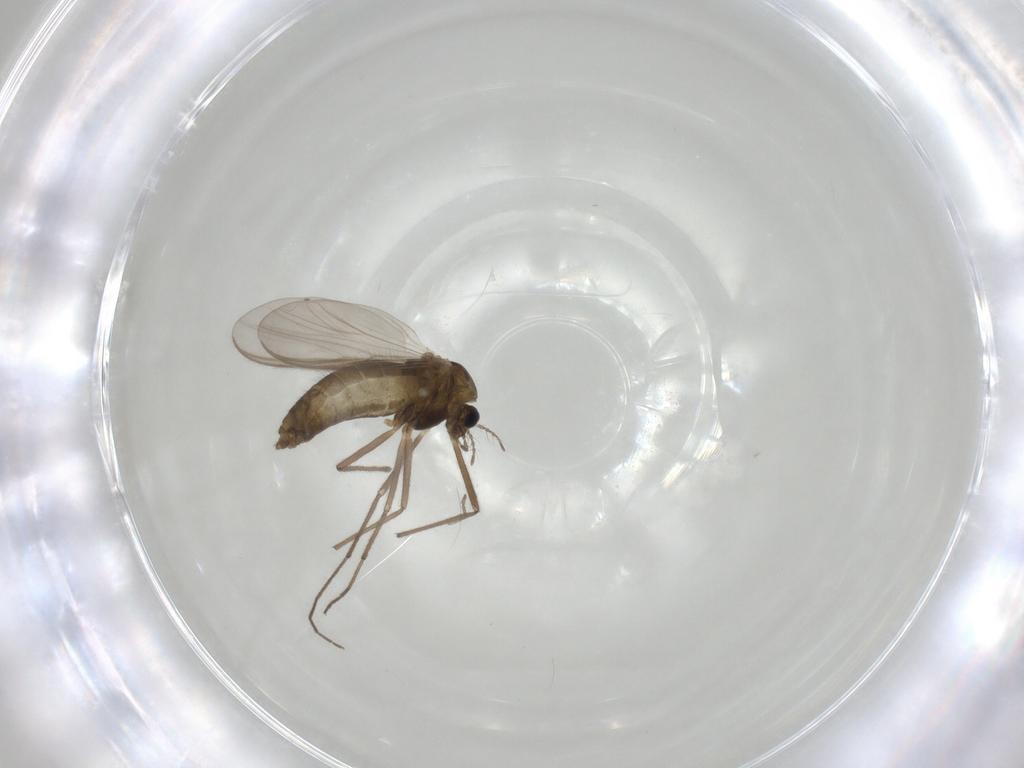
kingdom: Animalia
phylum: Arthropoda
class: Insecta
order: Diptera
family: Chironomidae
